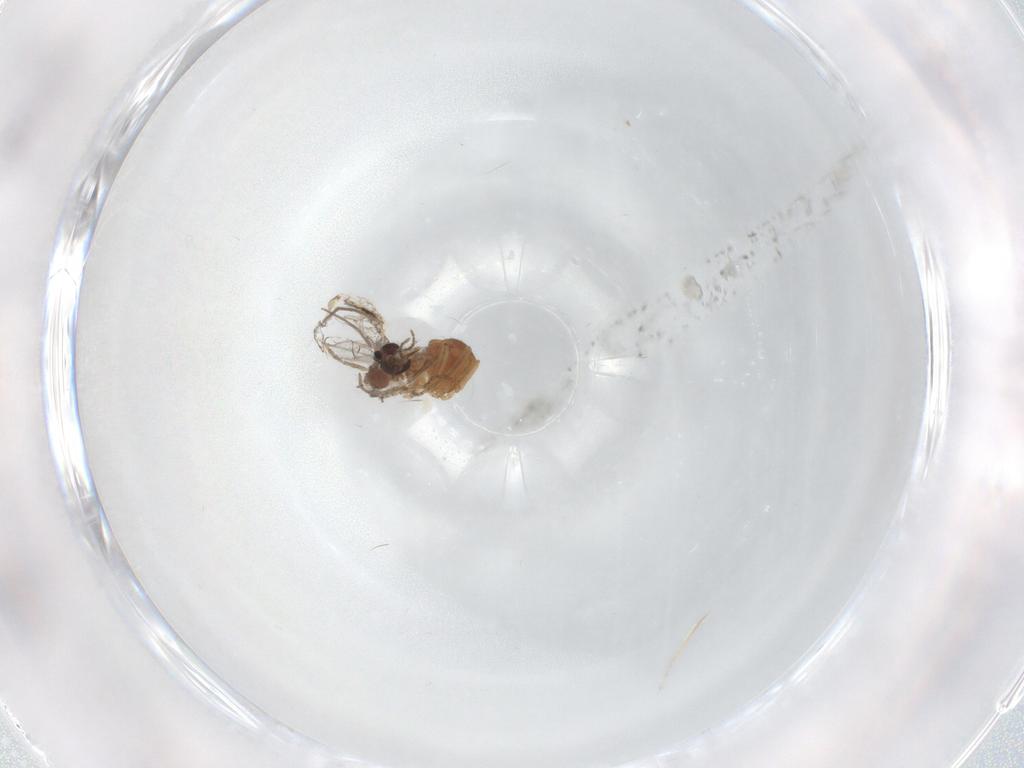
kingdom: Animalia
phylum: Arthropoda
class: Insecta
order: Diptera
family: Ceratopogonidae
